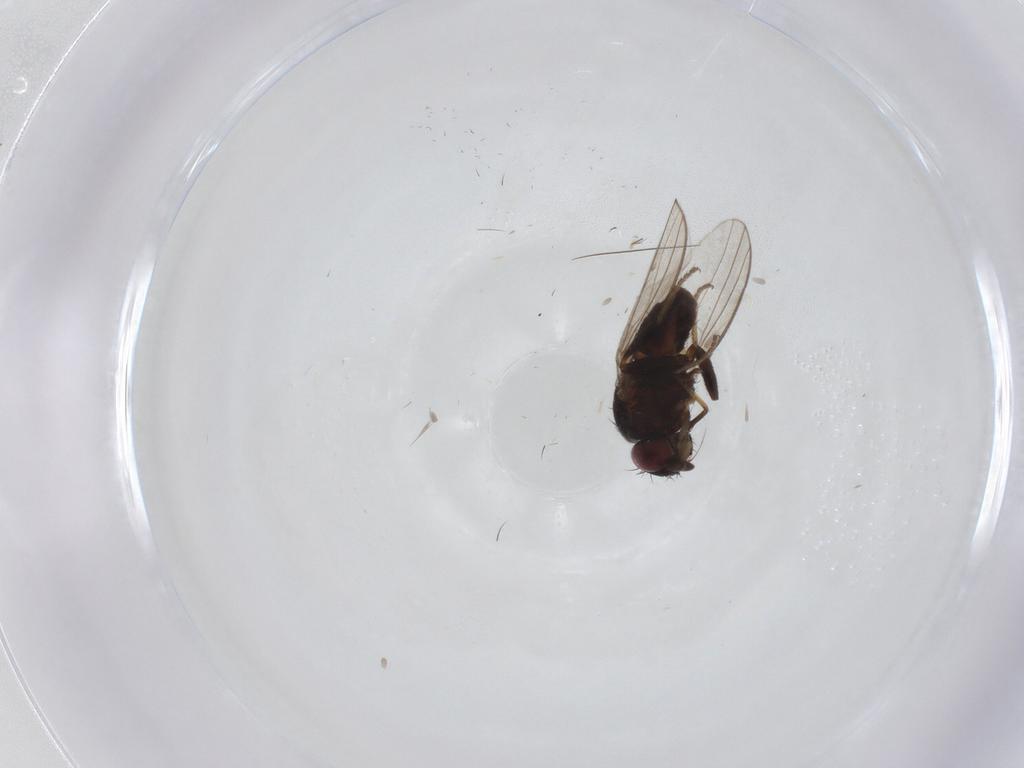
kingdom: Animalia
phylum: Arthropoda
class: Insecta
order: Diptera
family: Milichiidae
